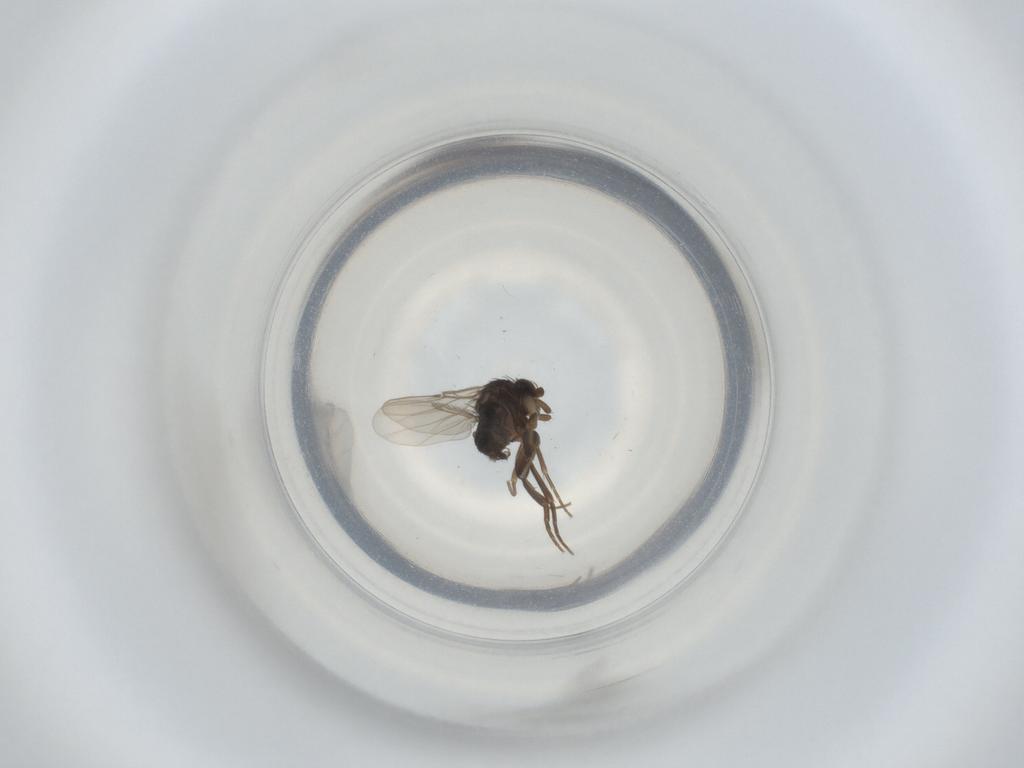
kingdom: Animalia
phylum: Arthropoda
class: Insecta
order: Diptera
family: Phoridae
